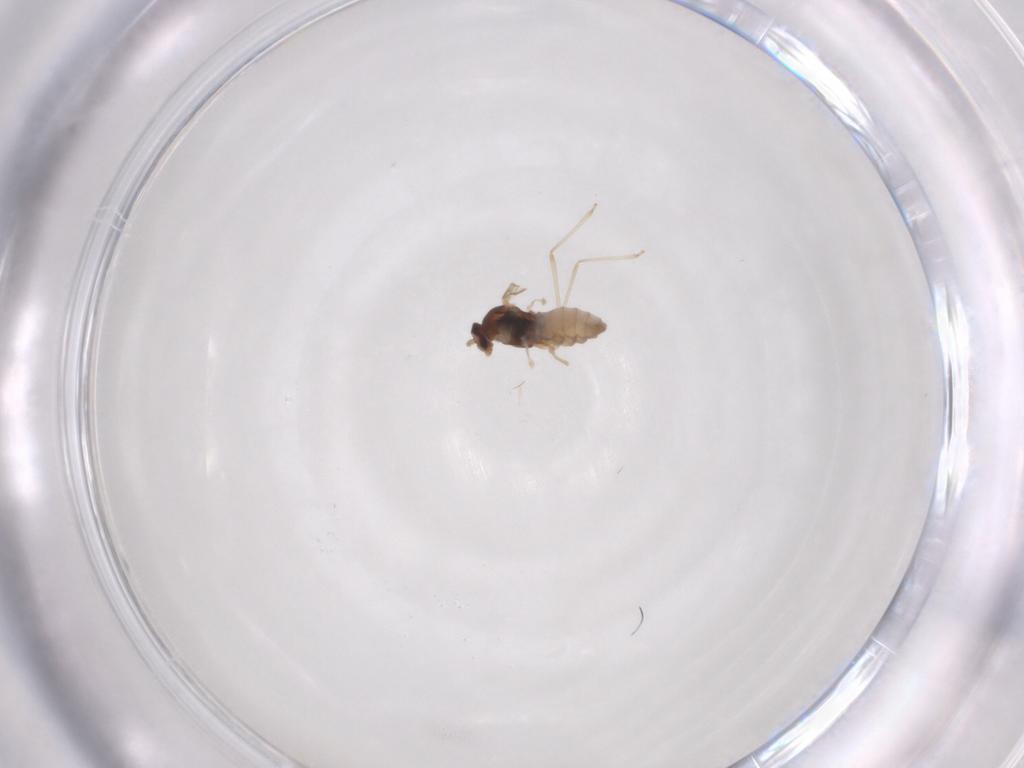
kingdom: Animalia
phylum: Arthropoda
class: Insecta
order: Diptera
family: Cecidomyiidae
